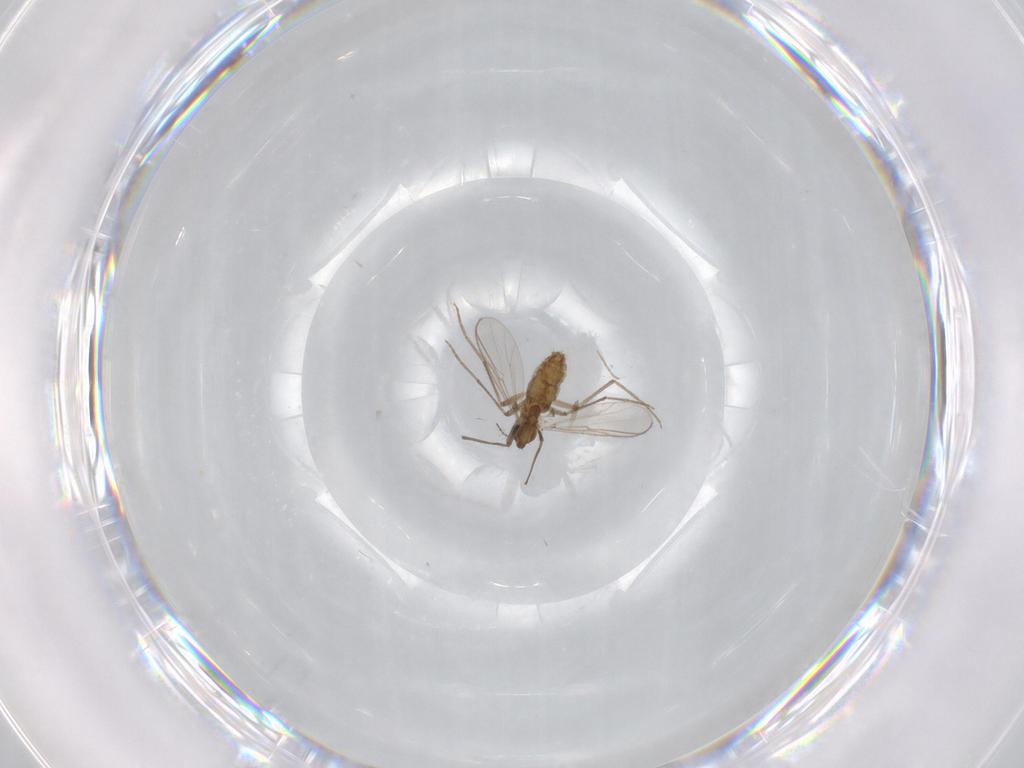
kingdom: Animalia
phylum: Arthropoda
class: Insecta
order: Diptera
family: Chironomidae
